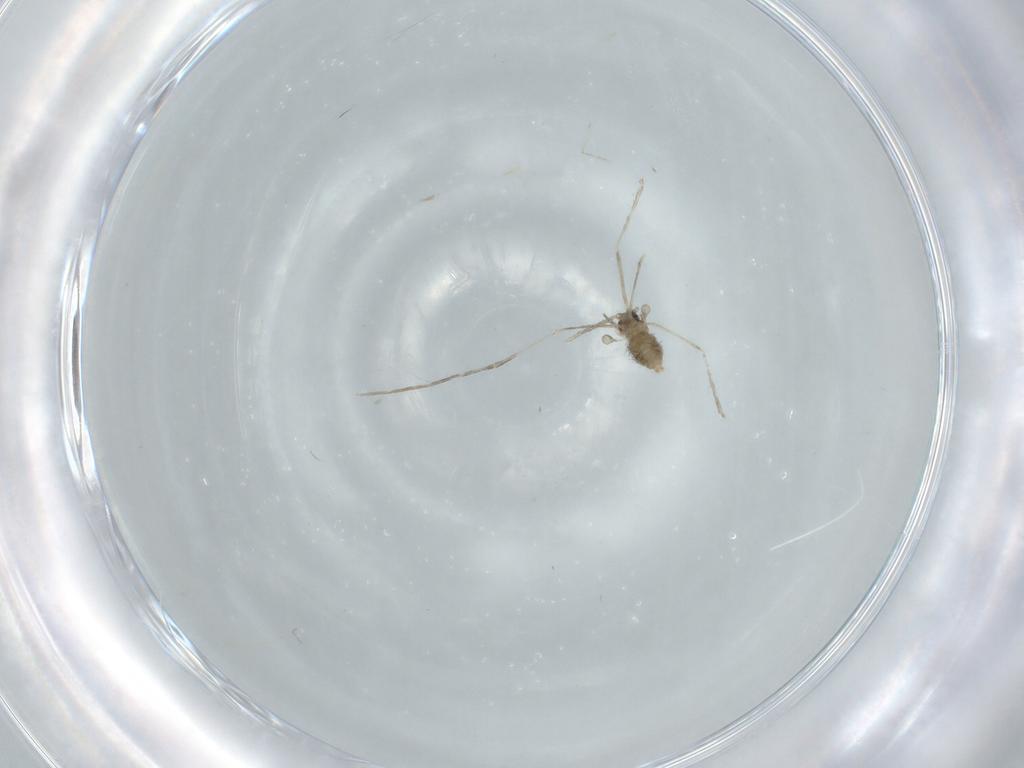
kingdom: Animalia
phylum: Arthropoda
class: Insecta
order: Diptera
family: Cecidomyiidae
